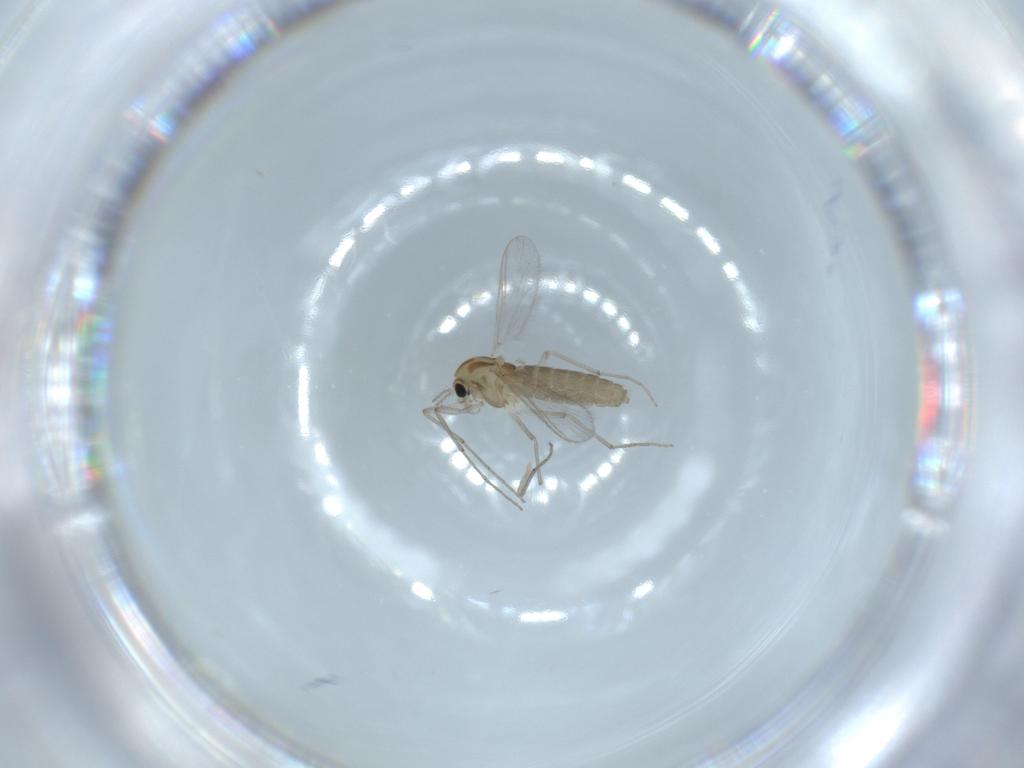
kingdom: Animalia
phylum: Arthropoda
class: Insecta
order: Diptera
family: Chironomidae
